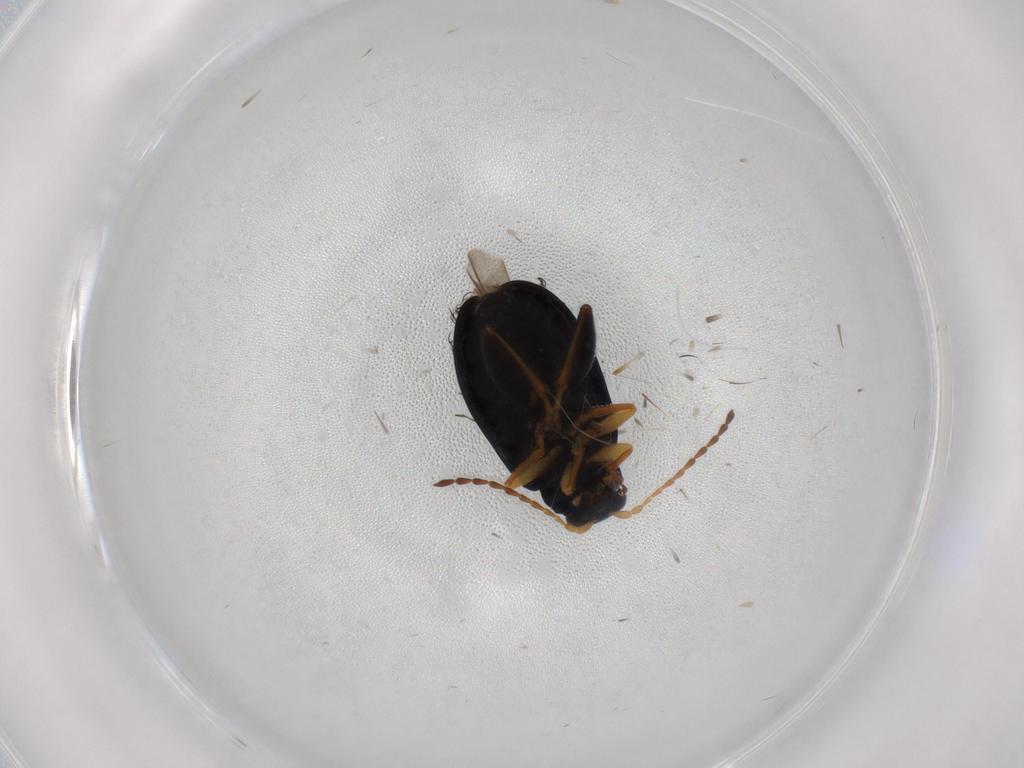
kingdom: Animalia
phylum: Arthropoda
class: Insecta
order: Coleoptera
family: Chrysomelidae
